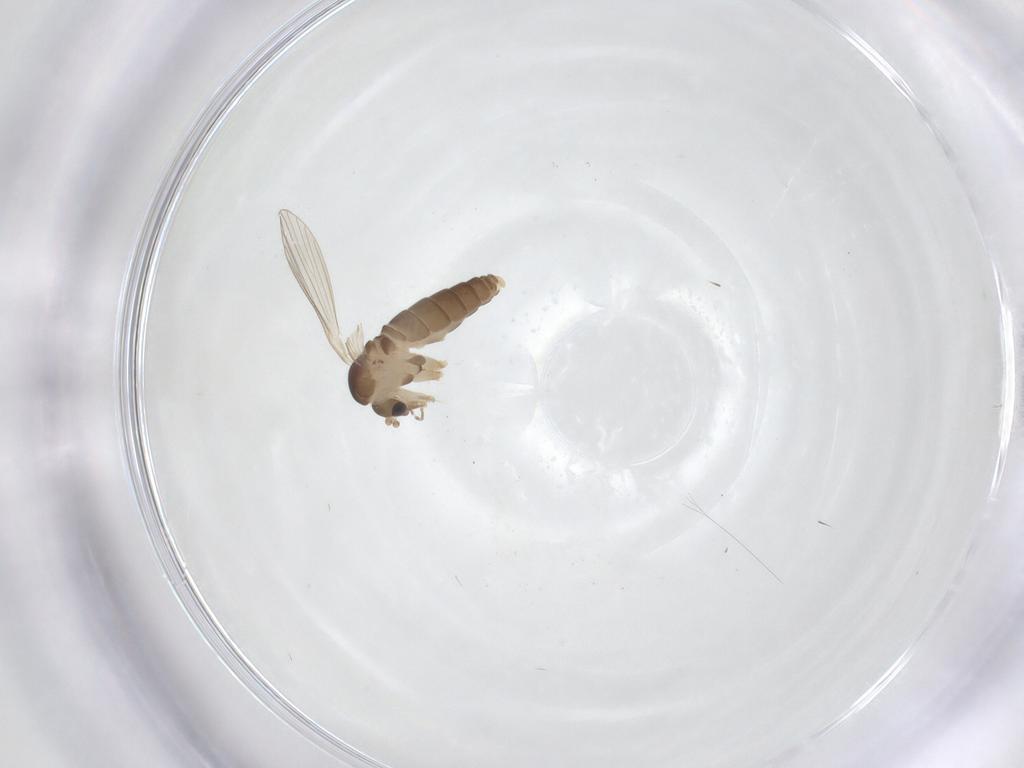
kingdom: Animalia
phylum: Arthropoda
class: Insecta
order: Diptera
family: Psychodidae
